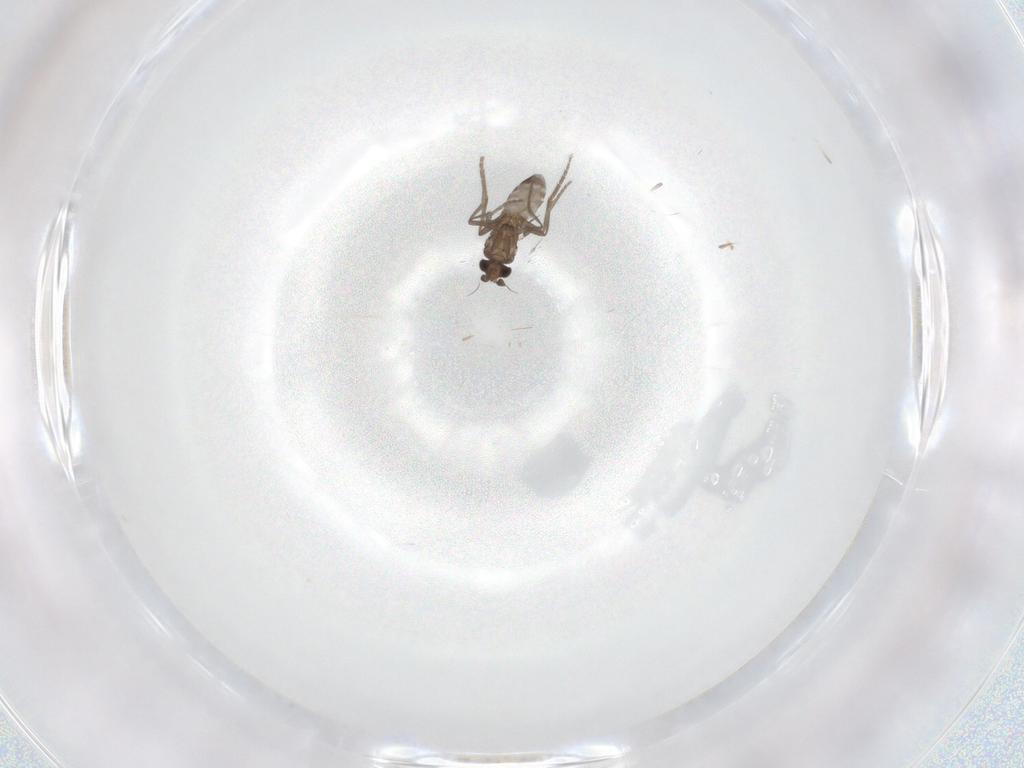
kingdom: Animalia
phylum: Arthropoda
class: Insecta
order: Diptera
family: Phoridae
